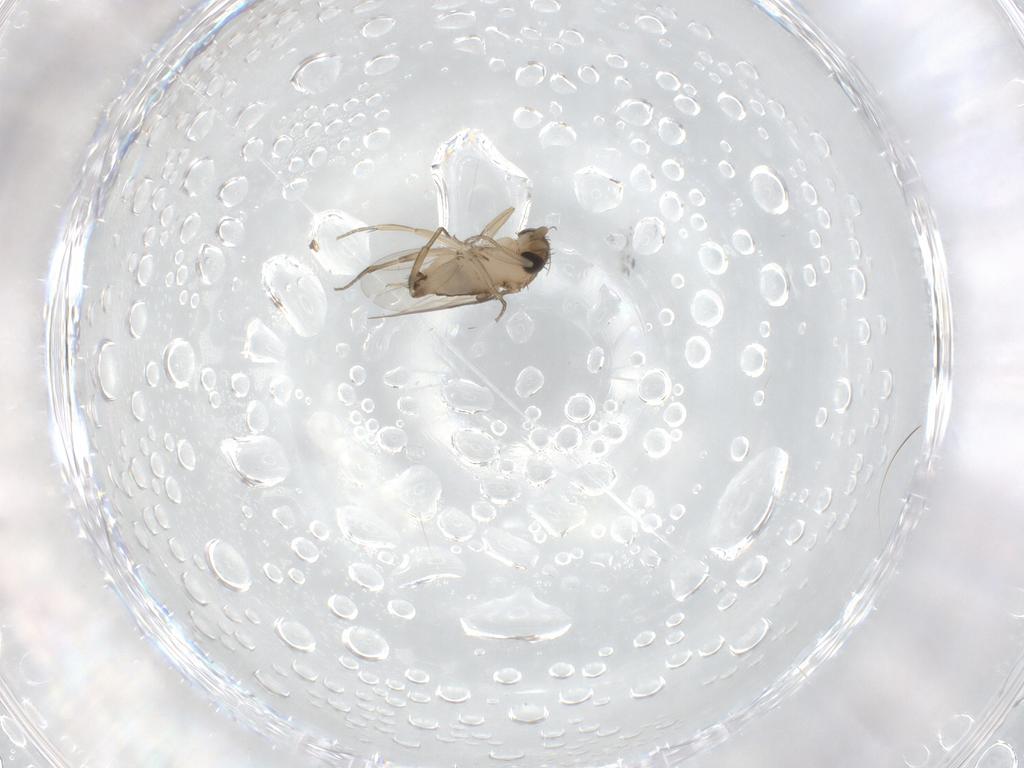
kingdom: Animalia
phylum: Arthropoda
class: Insecta
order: Diptera
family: Phoridae
